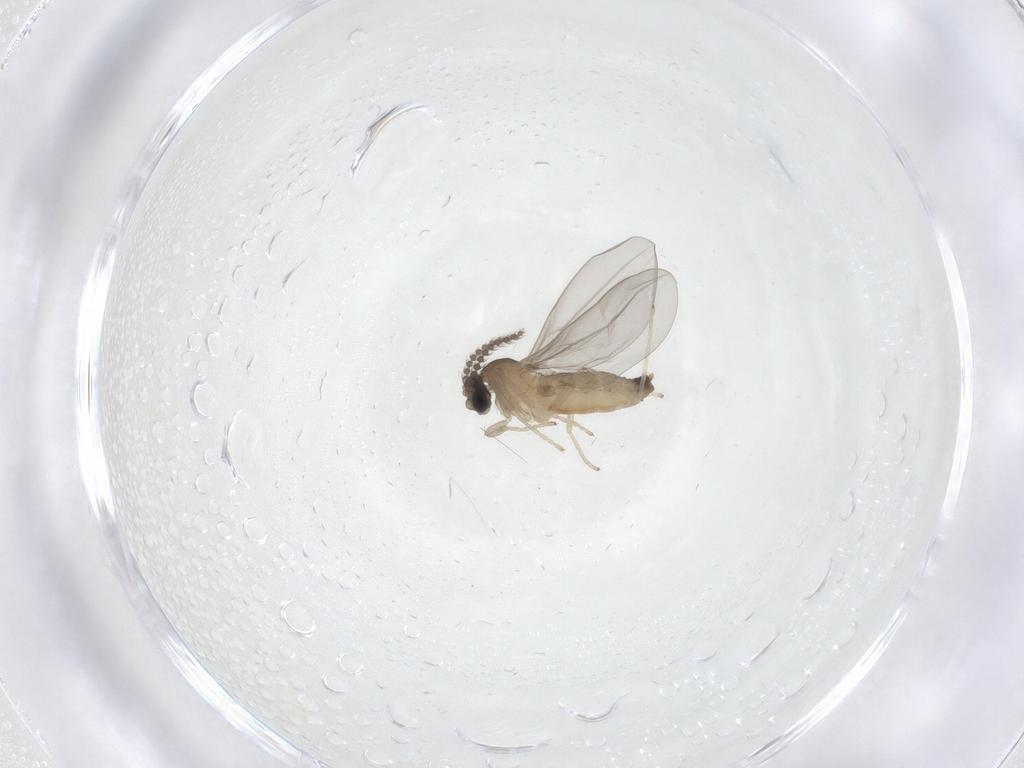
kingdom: Animalia
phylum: Arthropoda
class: Insecta
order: Diptera
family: Cecidomyiidae
